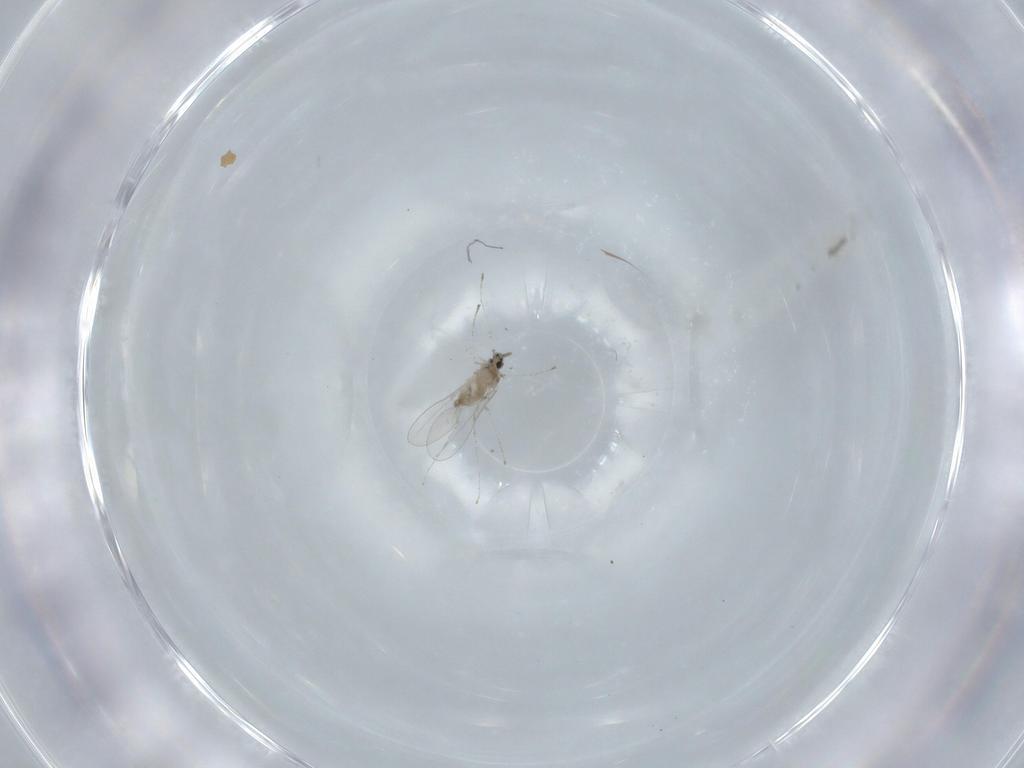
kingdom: Animalia
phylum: Arthropoda
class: Insecta
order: Diptera
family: Cecidomyiidae
